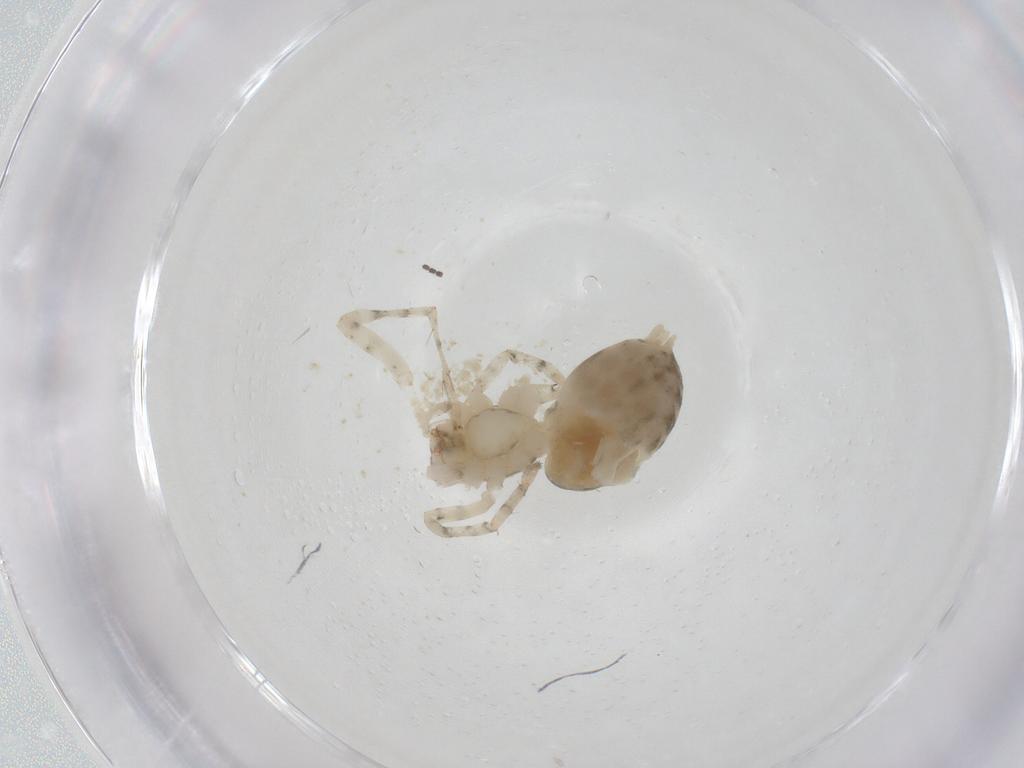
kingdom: Animalia
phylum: Arthropoda
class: Arachnida
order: Araneae
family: Anyphaenidae
